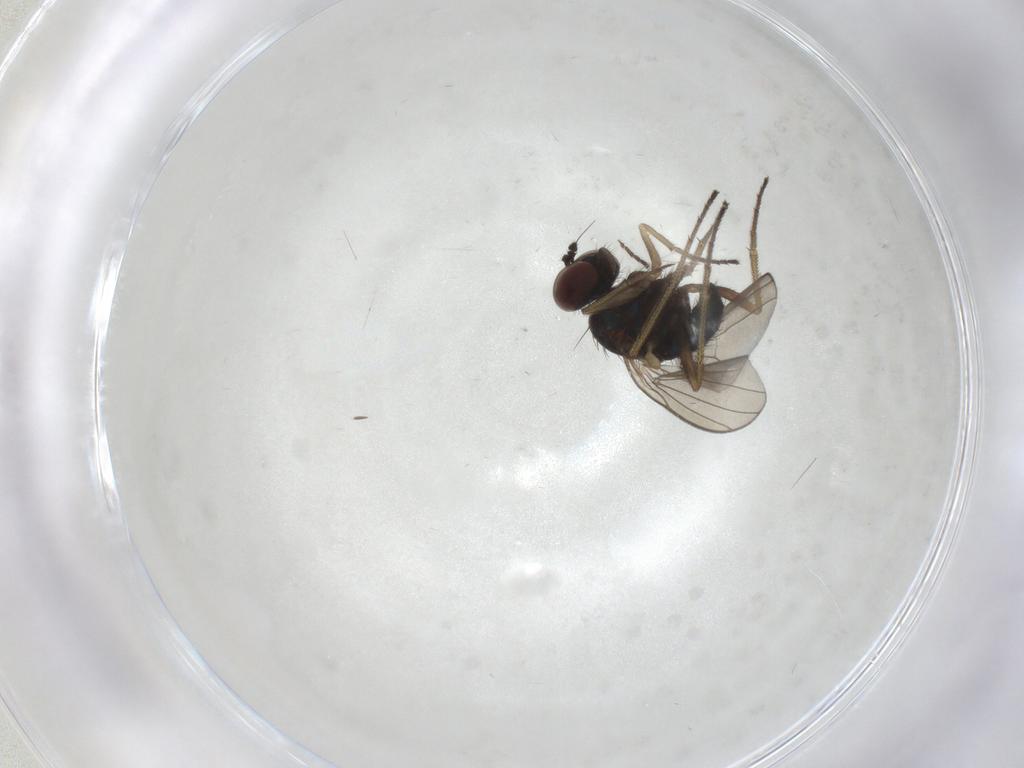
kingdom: Animalia
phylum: Arthropoda
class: Insecta
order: Diptera
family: Dolichopodidae
